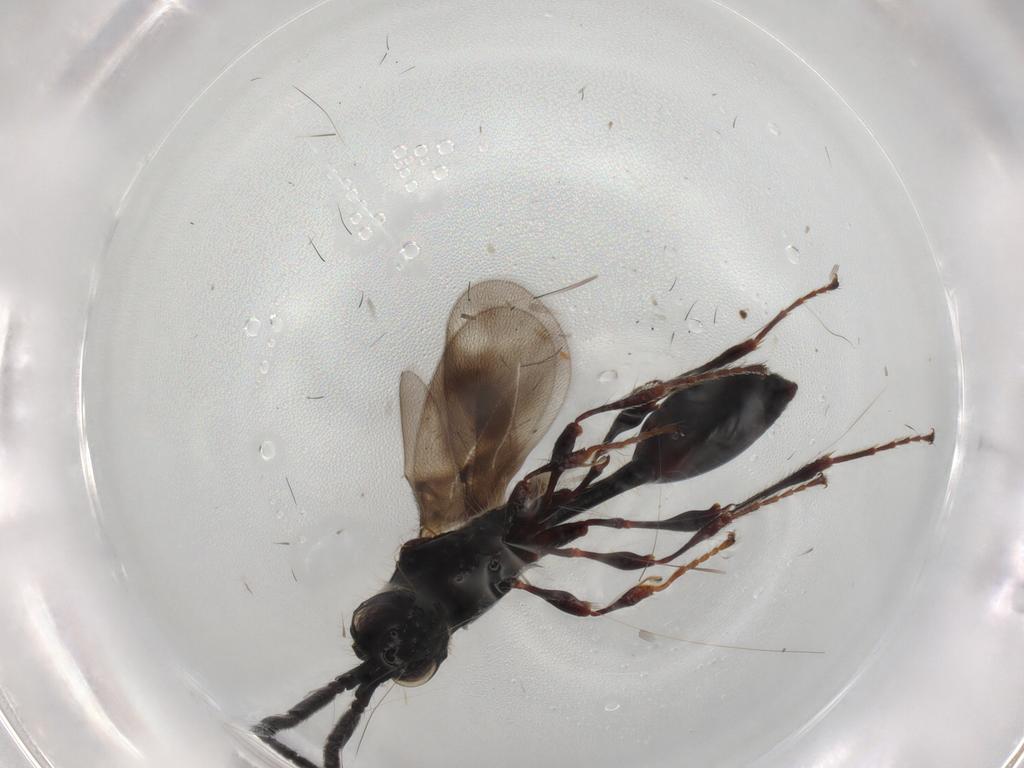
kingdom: Animalia
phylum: Arthropoda
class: Insecta
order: Hymenoptera
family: Diapriidae
